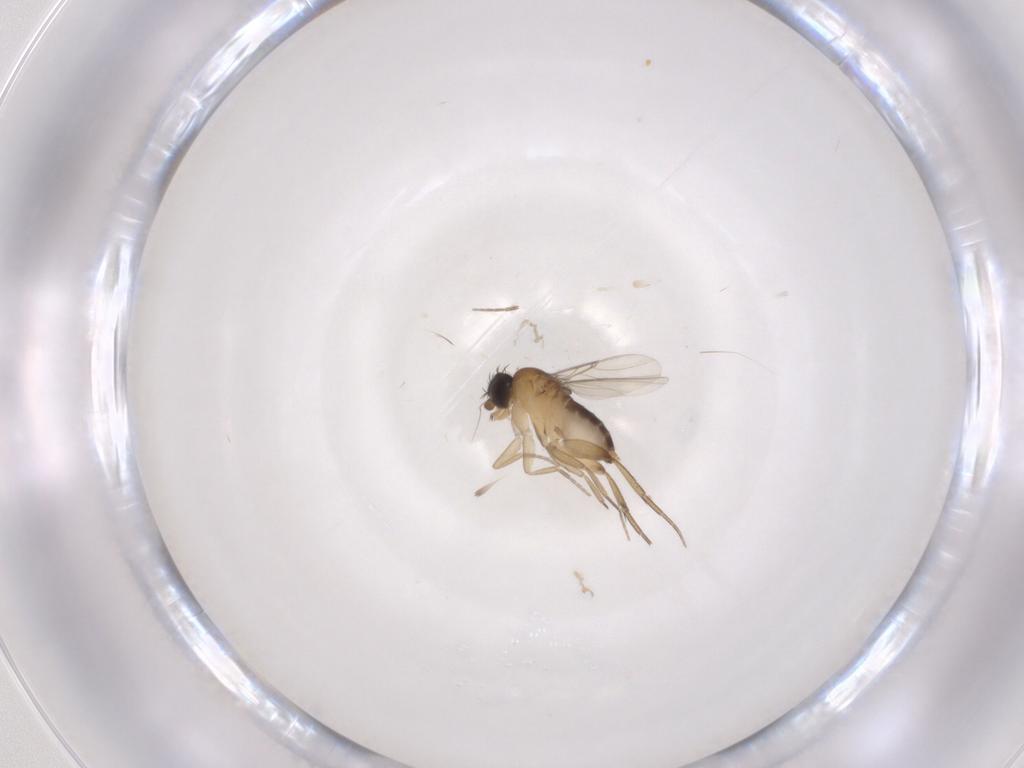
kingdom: Animalia
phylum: Arthropoda
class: Insecta
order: Diptera
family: Phoridae
